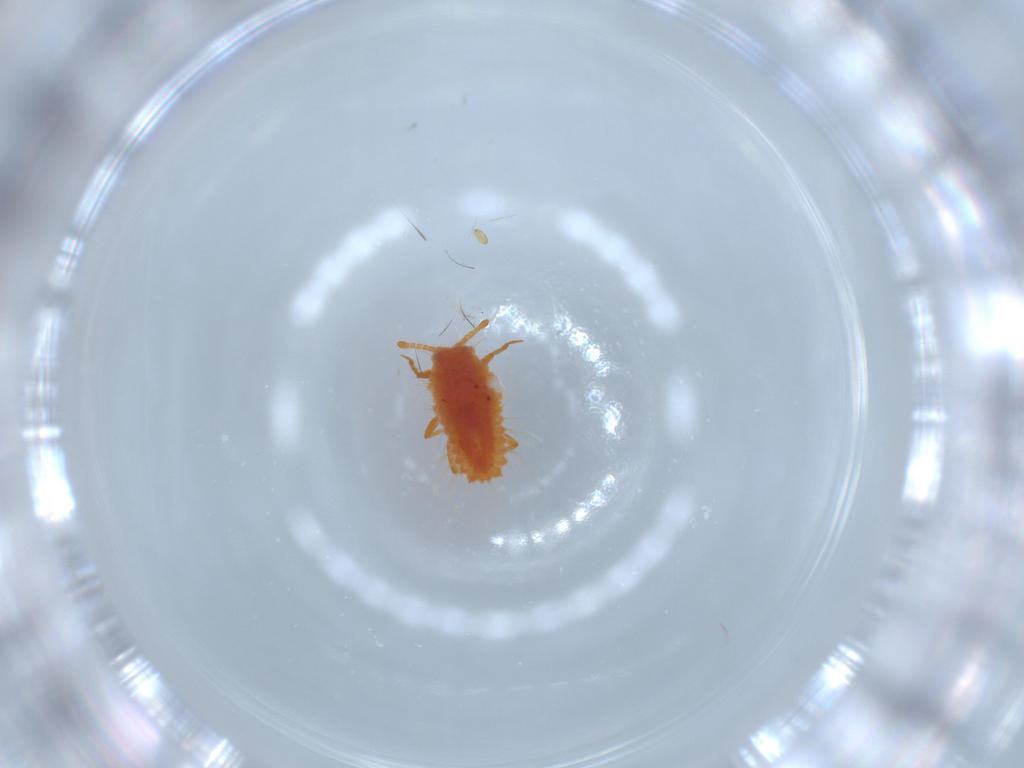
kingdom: Animalia
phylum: Arthropoda
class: Insecta
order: Hemiptera
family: Monophlebidae
